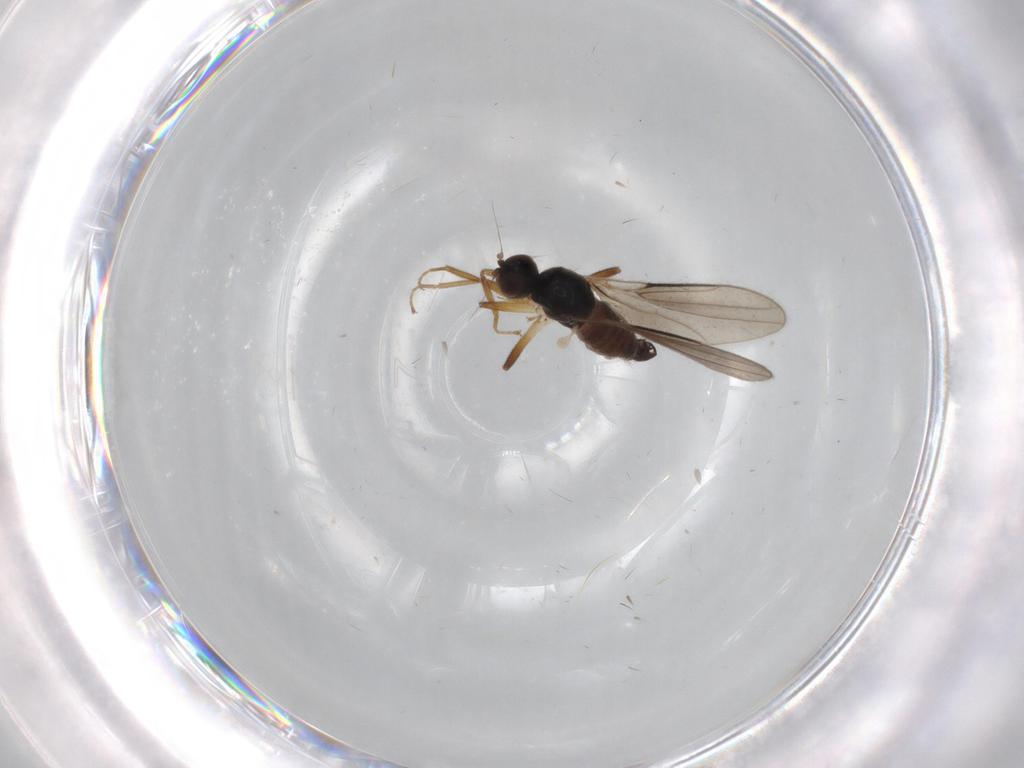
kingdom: Animalia
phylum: Arthropoda
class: Insecta
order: Diptera
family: Hybotidae
